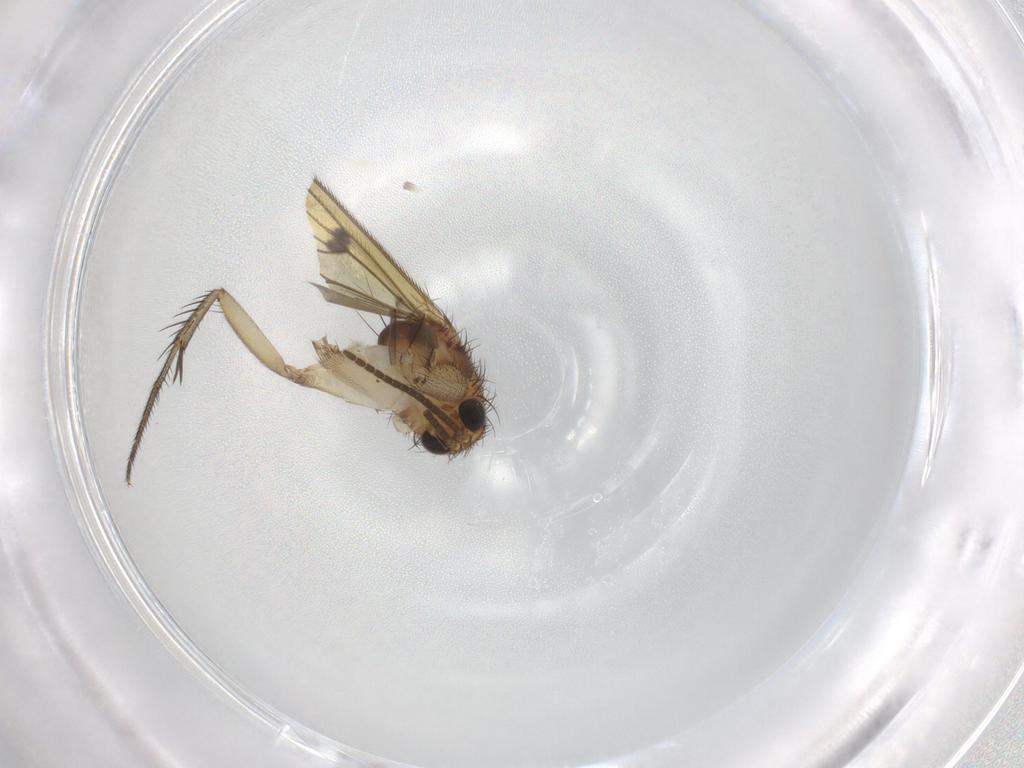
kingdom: Animalia
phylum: Arthropoda
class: Insecta
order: Diptera
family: Mycetophilidae
